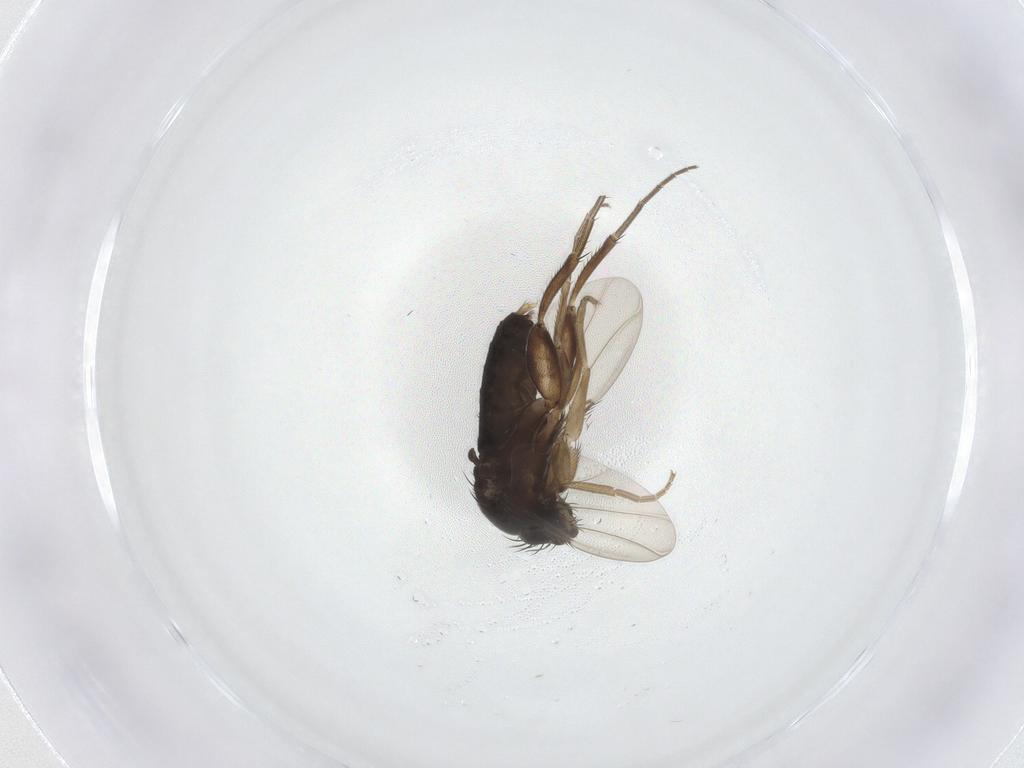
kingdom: Animalia
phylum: Arthropoda
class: Insecta
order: Diptera
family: Phoridae
